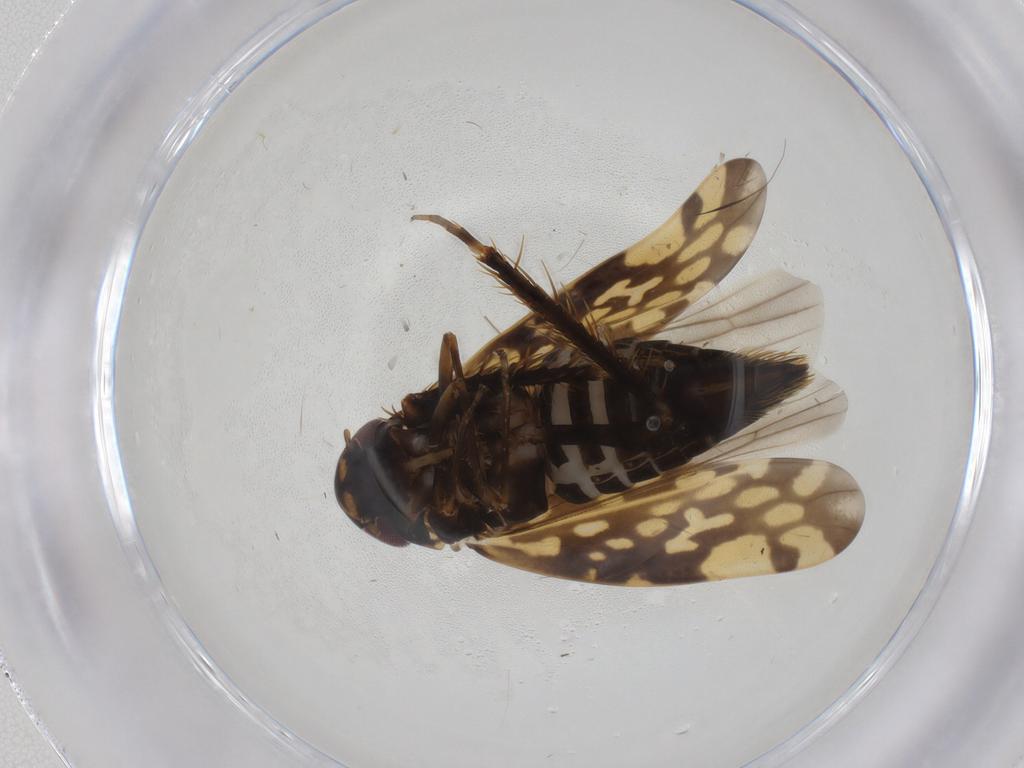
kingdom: Animalia
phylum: Arthropoda
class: Insecta
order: Hemiptera
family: Cicadellidae
